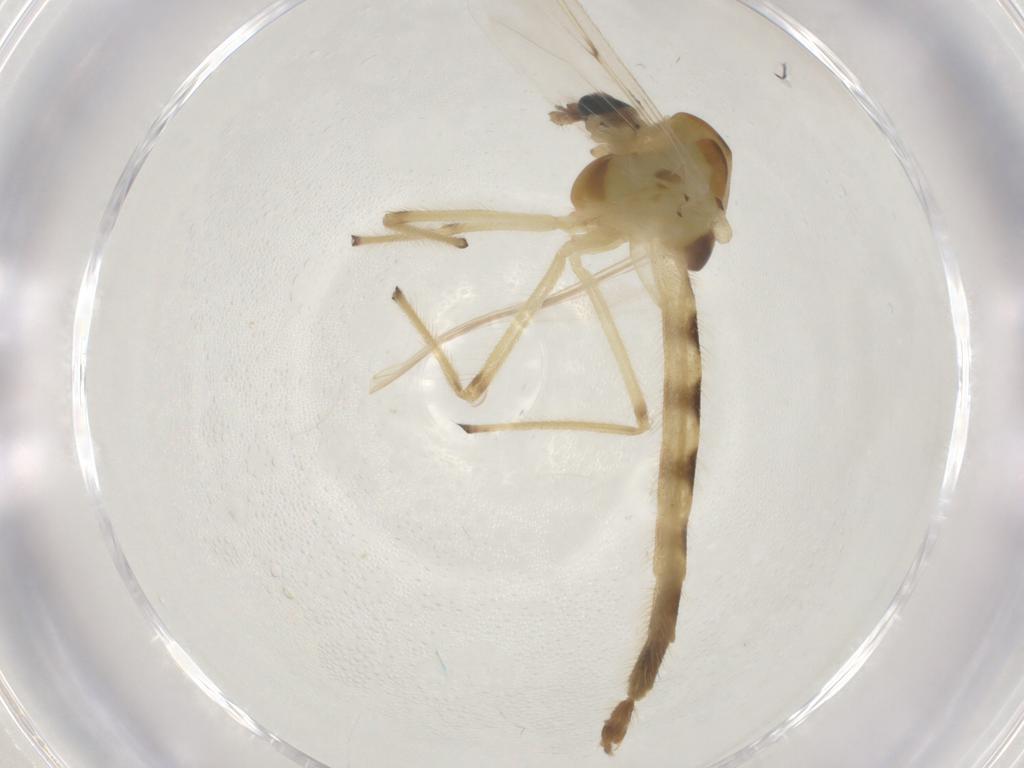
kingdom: Animalia
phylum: Arthropoda
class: Insecta
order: Diptera
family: Chironomidae
